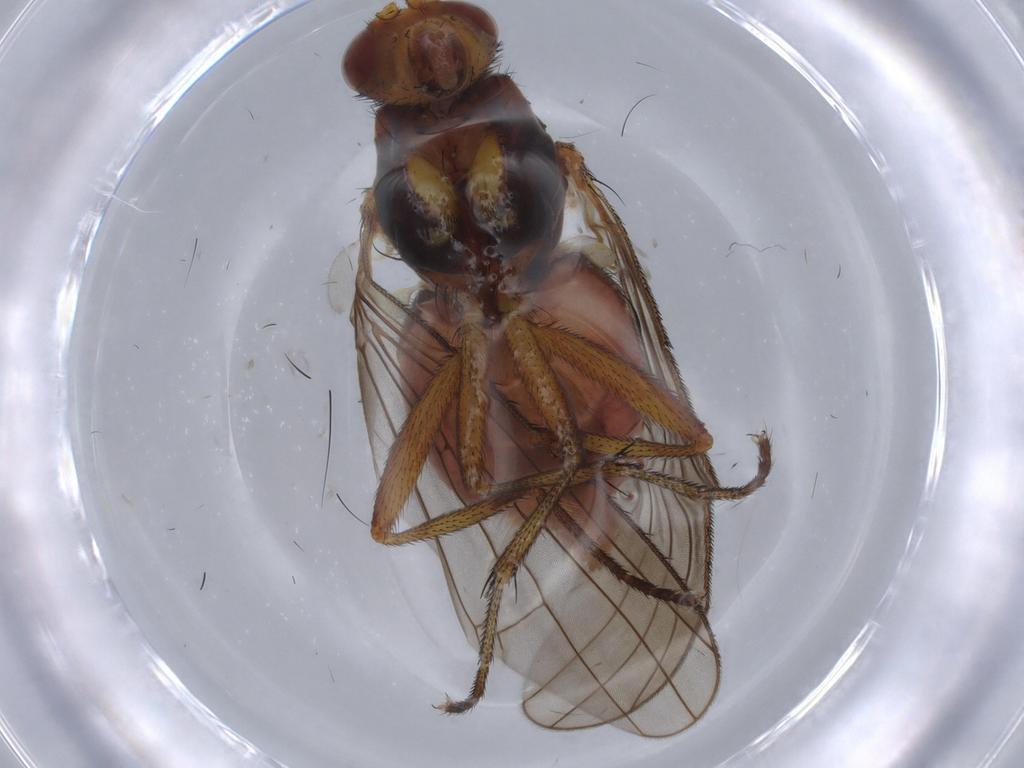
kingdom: Animalia
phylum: Arthropoda
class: Insecta
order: Diptera
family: Heleomyzidae
